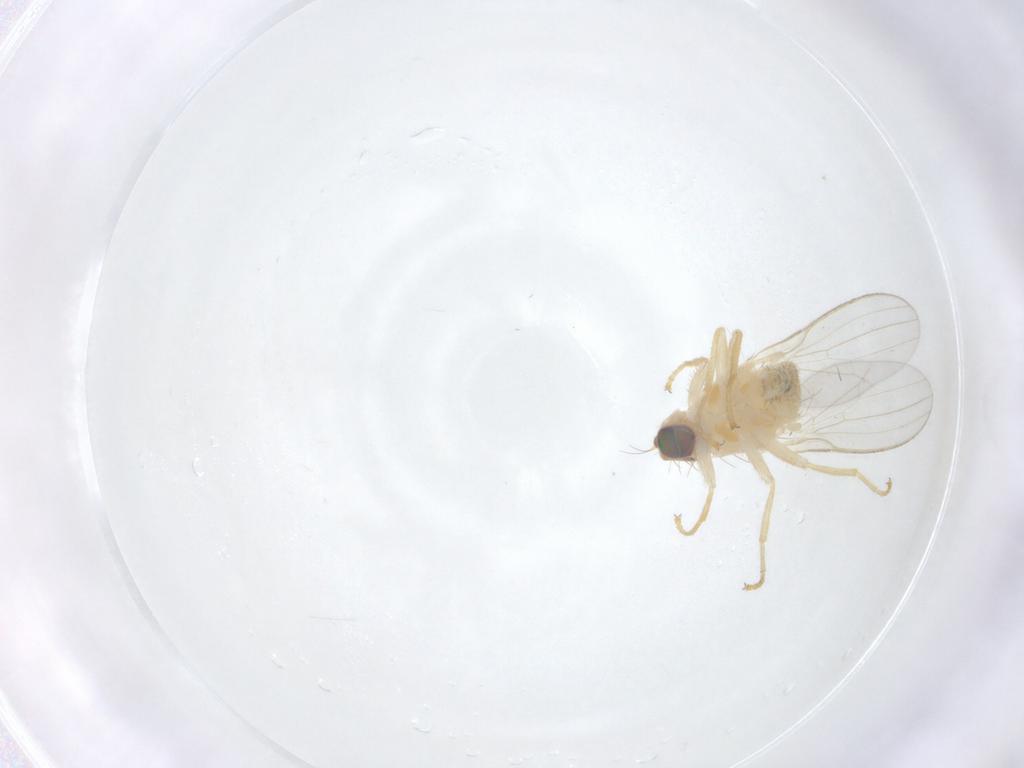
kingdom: Animalia
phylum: Arthropoda
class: Insecta
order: Diptera
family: Chyromyidae
